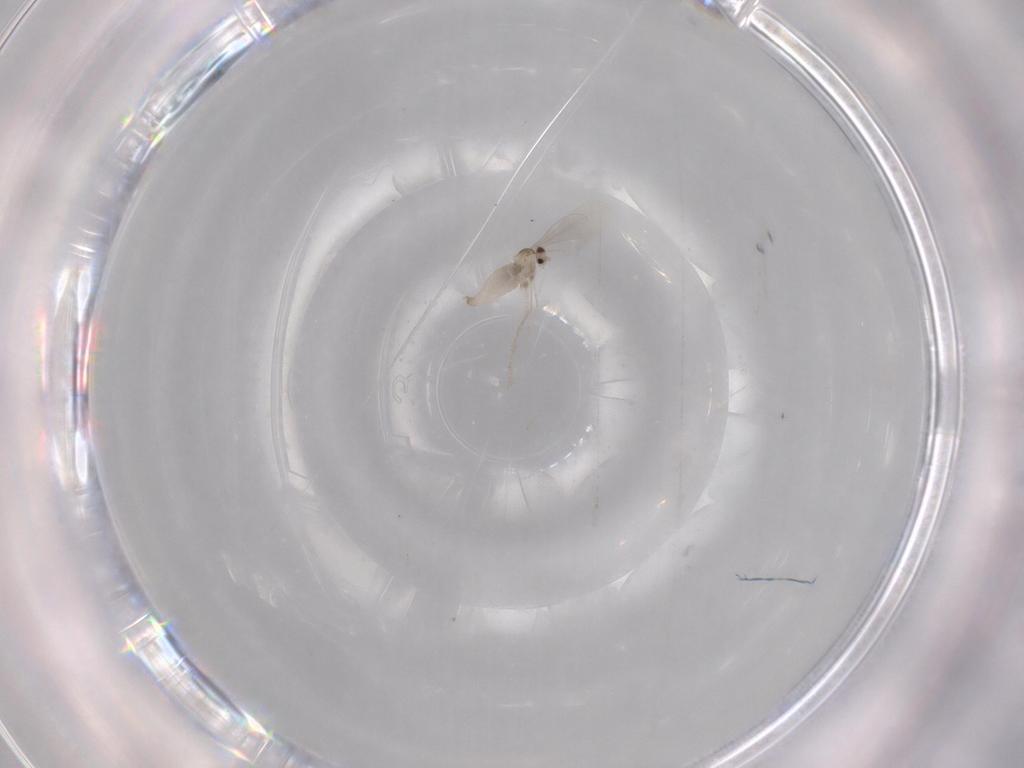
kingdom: Animalia
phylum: Arthropoda
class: Insecta
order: Diptera
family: Cecidomyiidae
